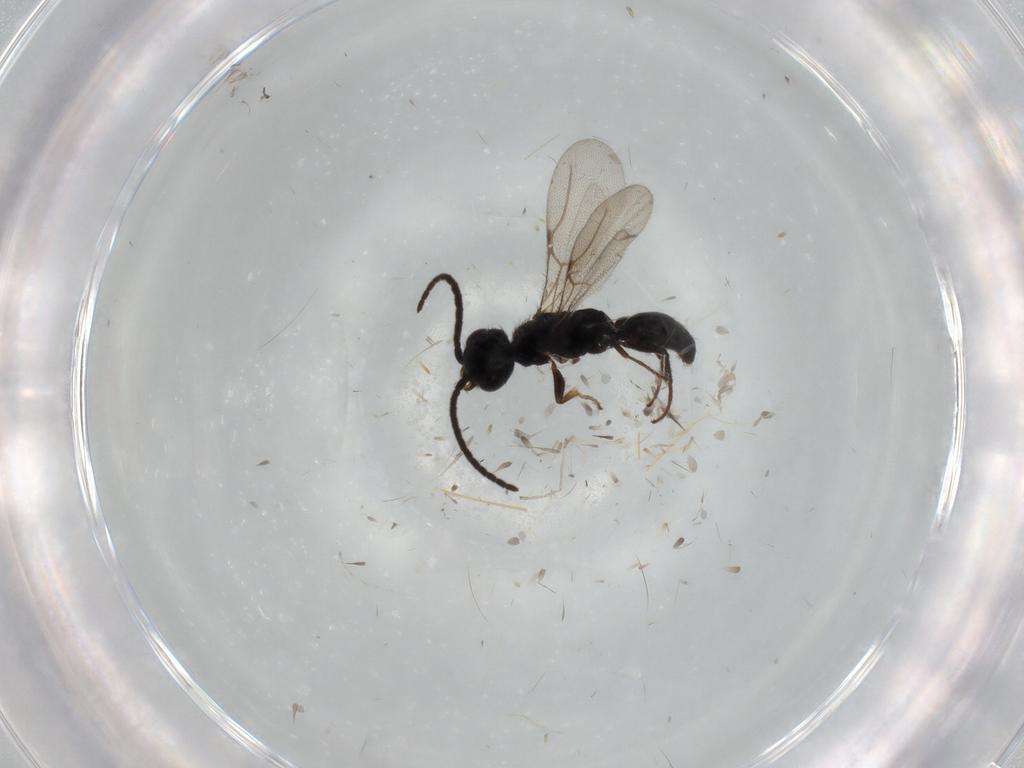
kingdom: Animalia
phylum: Arthropoda
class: Insecta
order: Hymenoptera
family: Bethylidae
